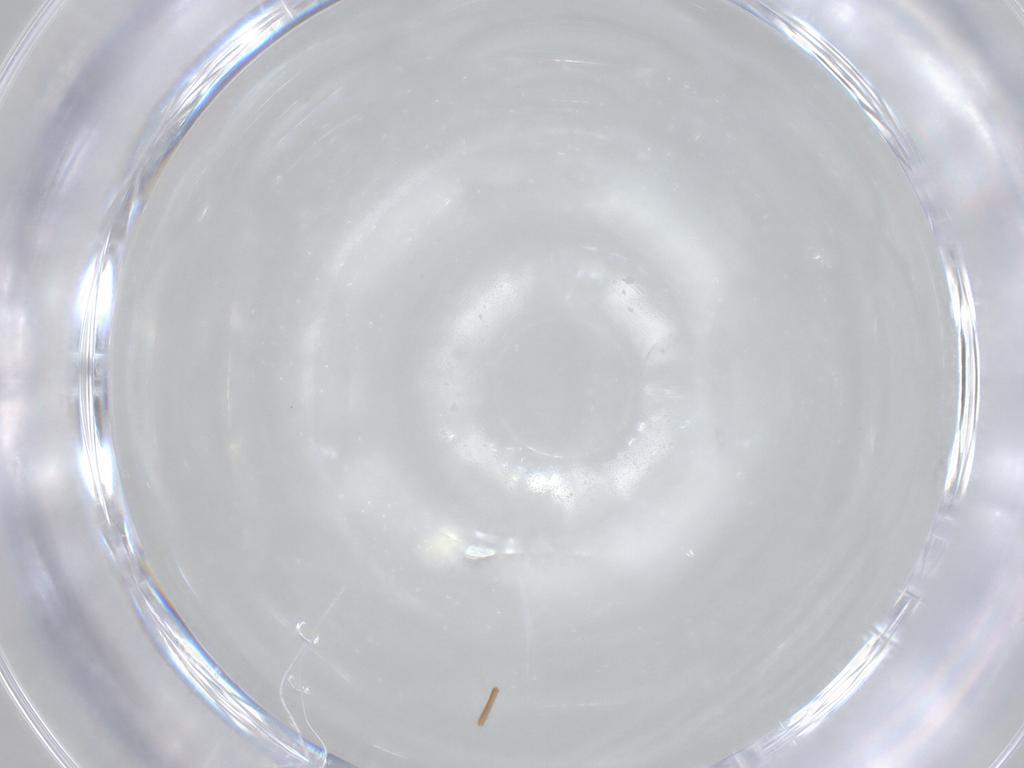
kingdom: Animalia
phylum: Arthropoda
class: Collembola
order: Entomobryomorpha
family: Entomobryidae
